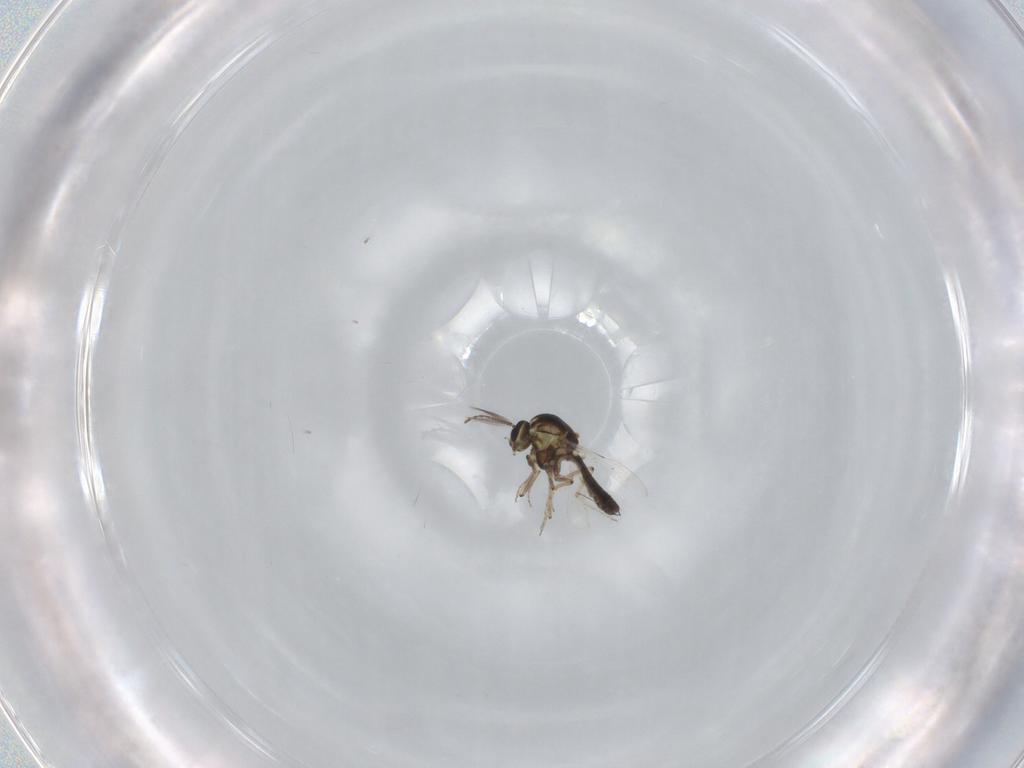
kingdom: Animalia
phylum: Arthropoda
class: Insecta
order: Diptera
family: Ceratopogonidae
